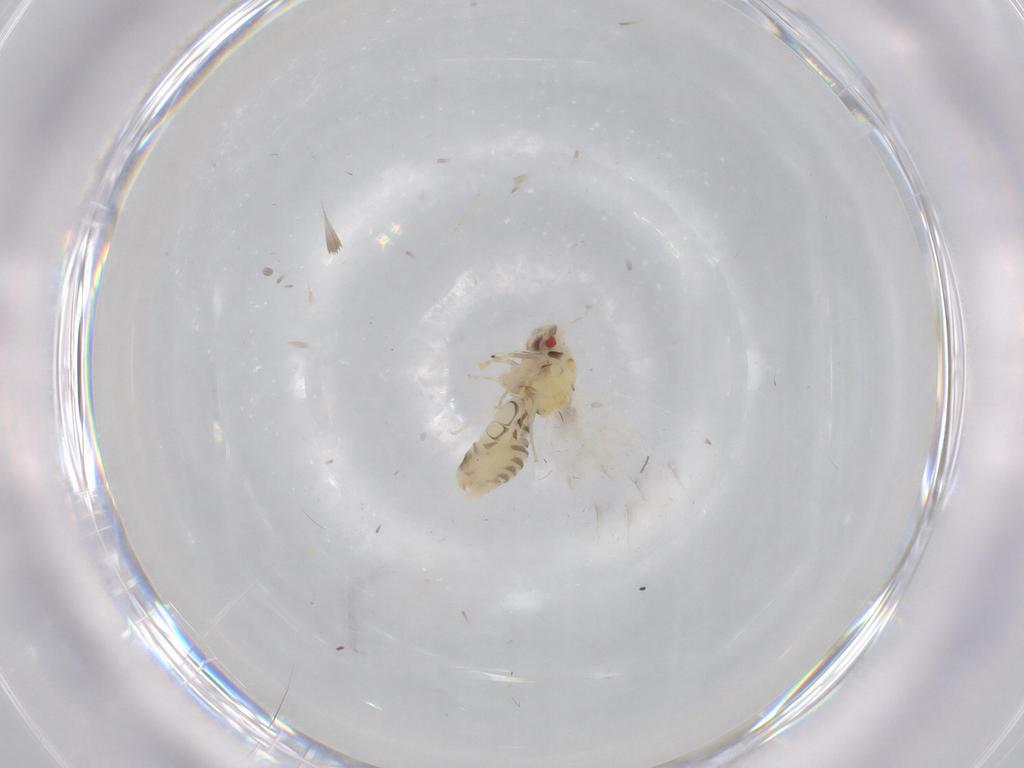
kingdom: Animalia
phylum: Arthropoda
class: Insecta
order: Hemiptera
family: Aleyrodidae
